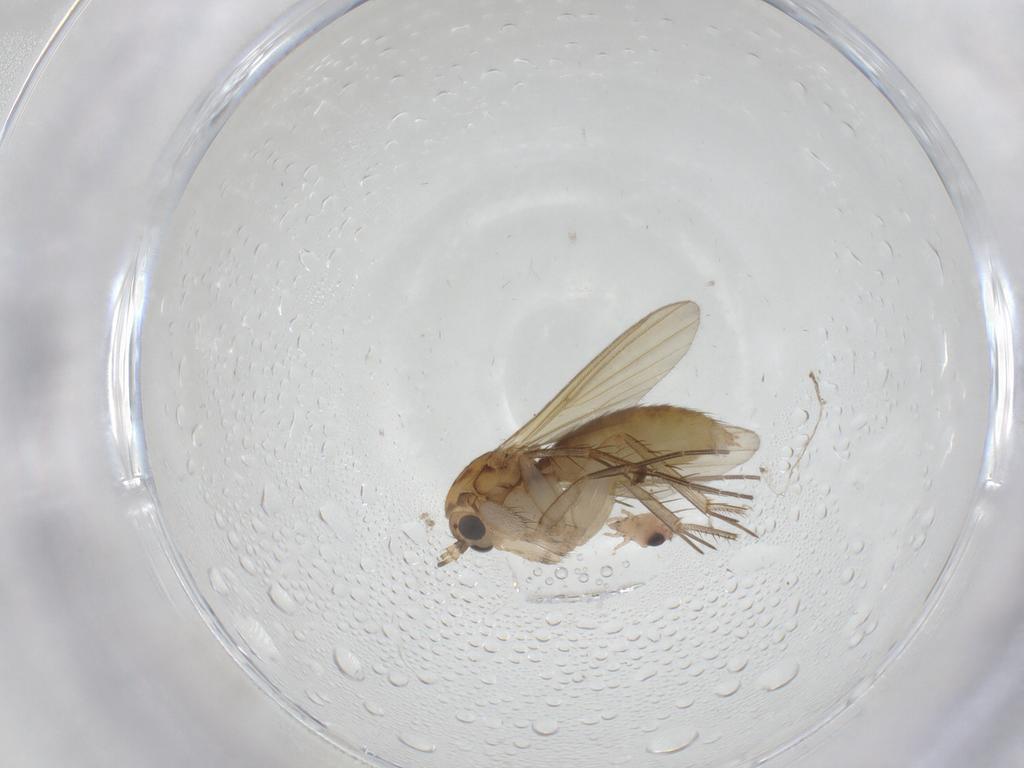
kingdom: Animalia
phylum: Arthropoda
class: Insecta
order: Diptera
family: Mycetophilidae
